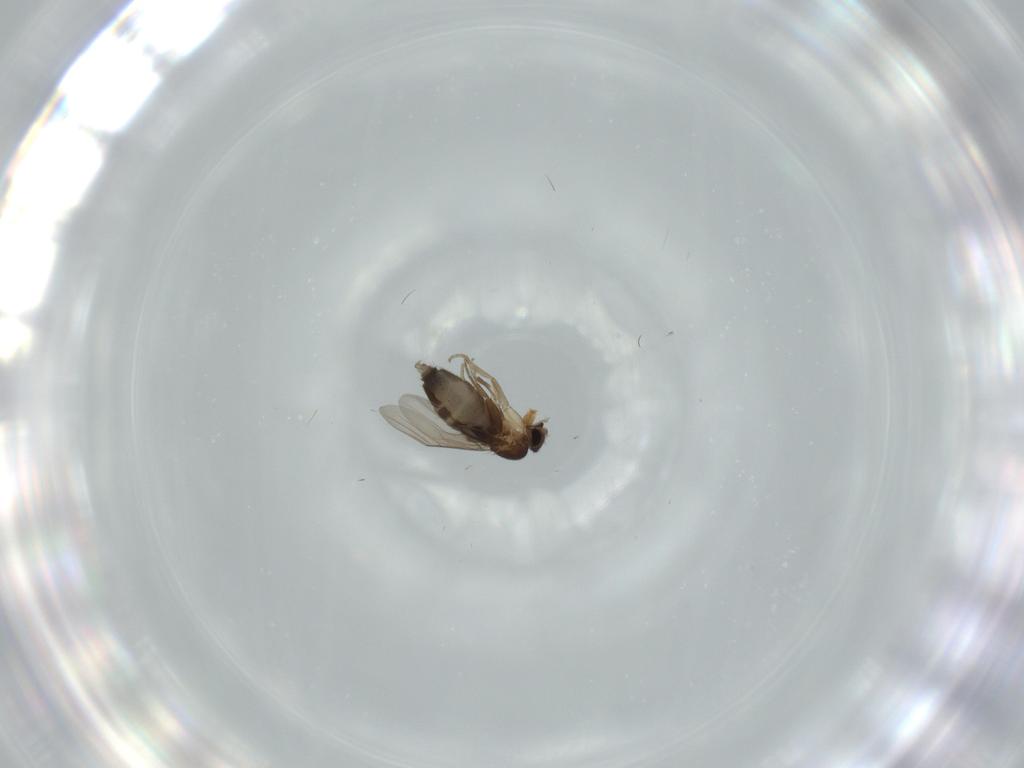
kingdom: Animalia
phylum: Arthropoda
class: Insecta
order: Diptera
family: Phoridae
